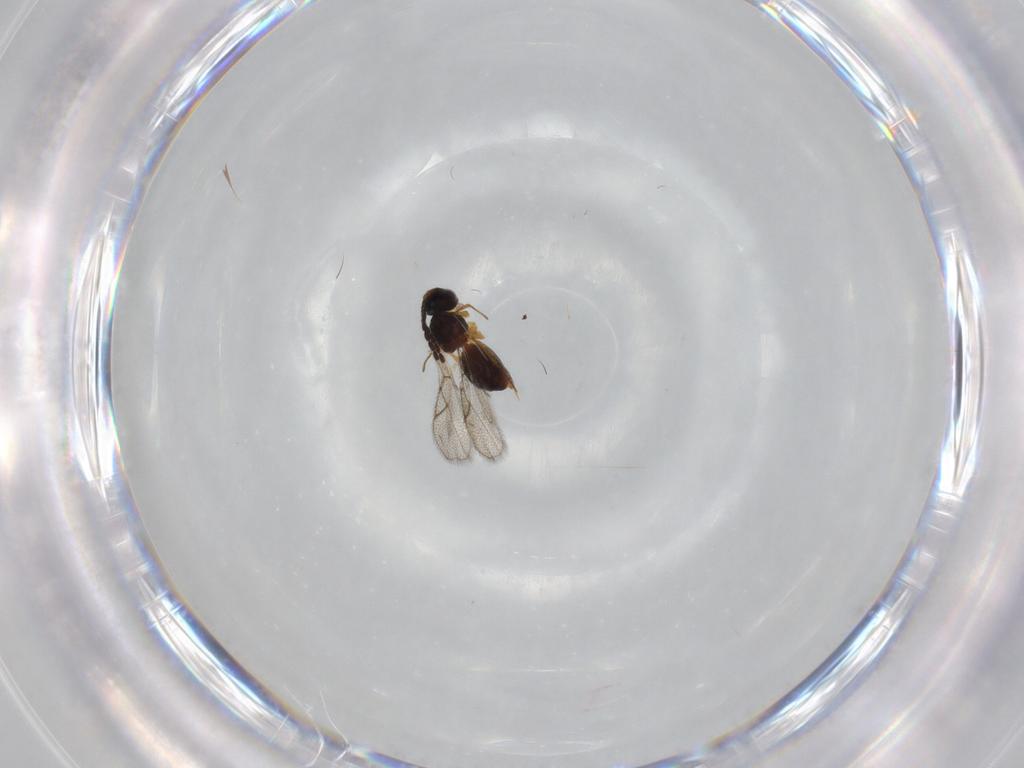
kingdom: Animalia
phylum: Arthropoda
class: Insecta
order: Hymenoptera
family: Figitidae
